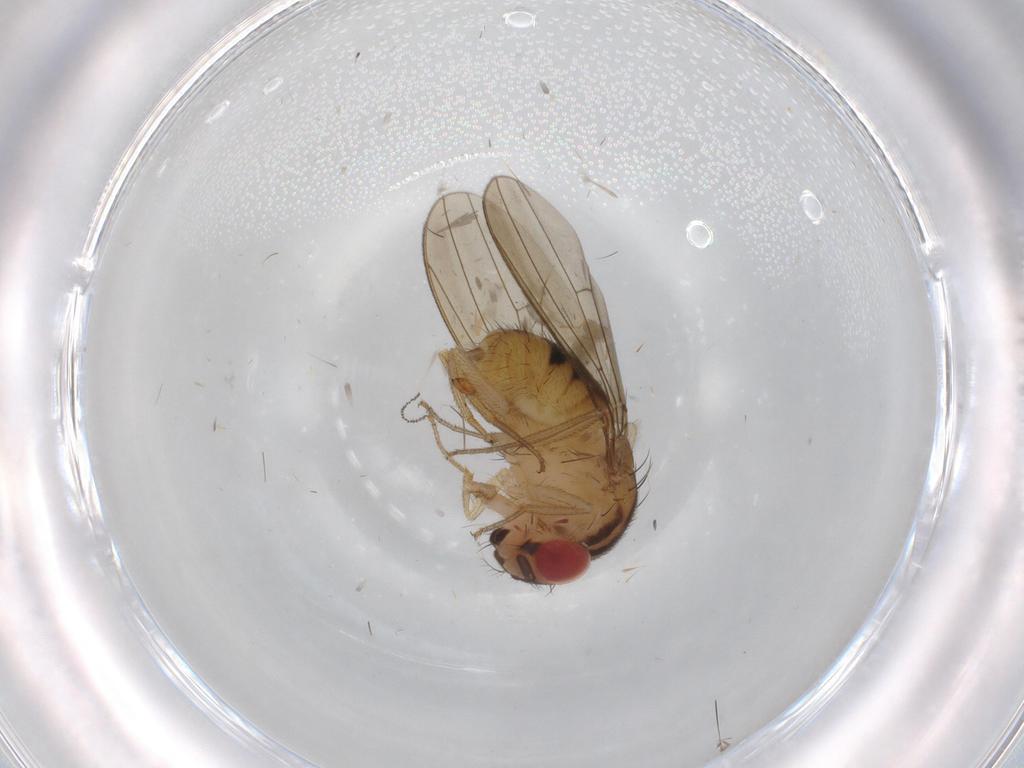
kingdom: Animalia
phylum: Arthropoda
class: Insecta
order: Diptera
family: Drosophilidae
